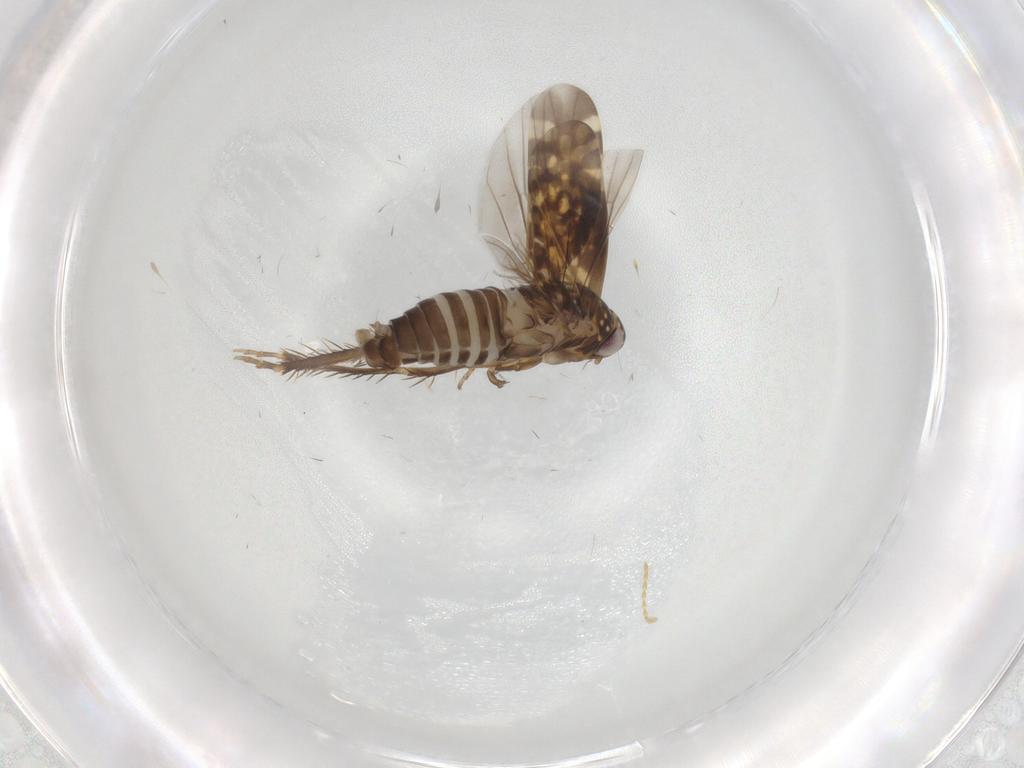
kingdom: Animalia
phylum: Arthropoda
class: Insecta
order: Hemiptera
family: Cicadellidae
